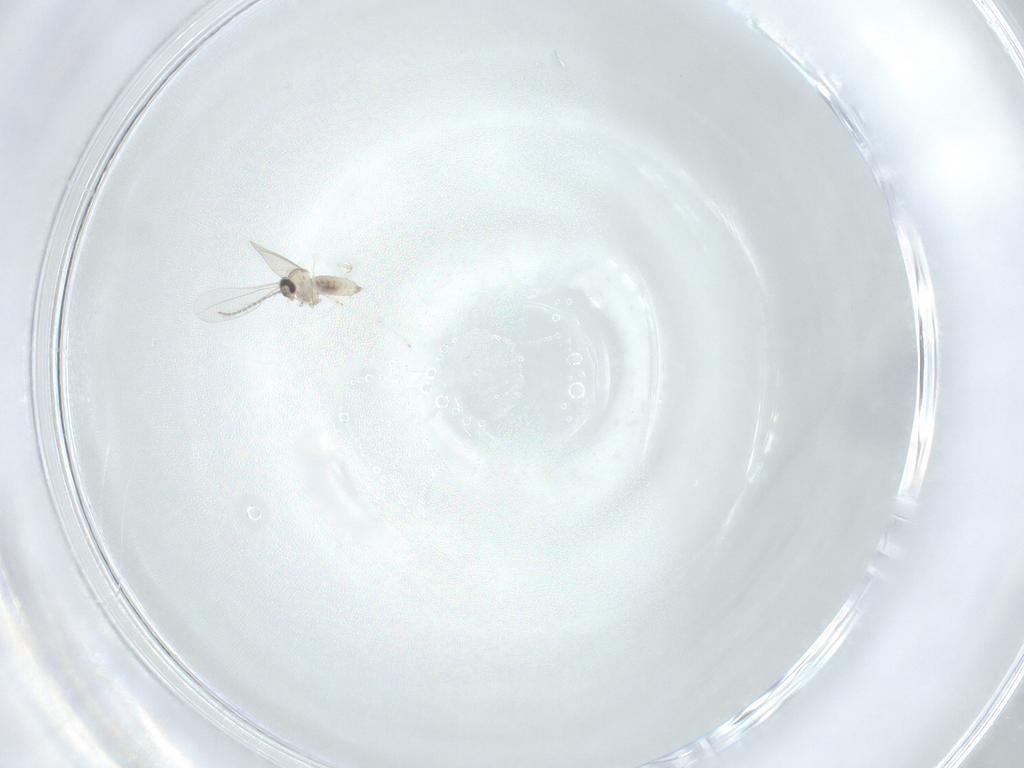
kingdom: Animalia
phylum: Arthropoda
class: Insecta
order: Diptera
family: Cecidomyiidae
